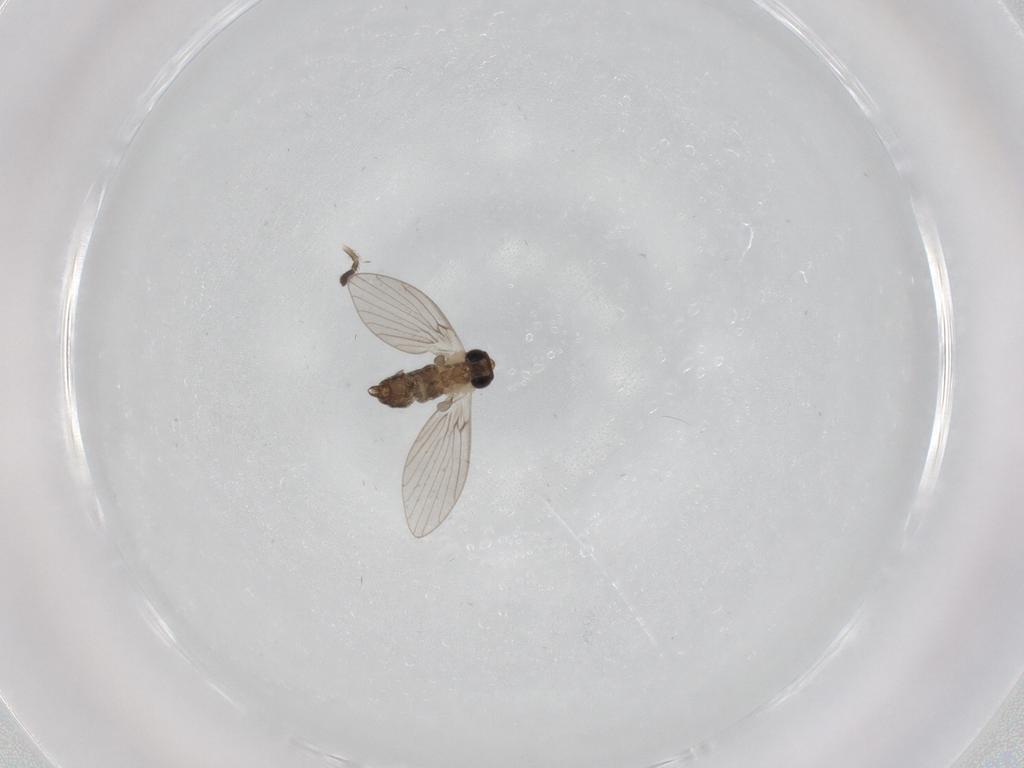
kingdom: Animalia
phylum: Arthropoda
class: Insecta
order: Diptera
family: Psychodidae
